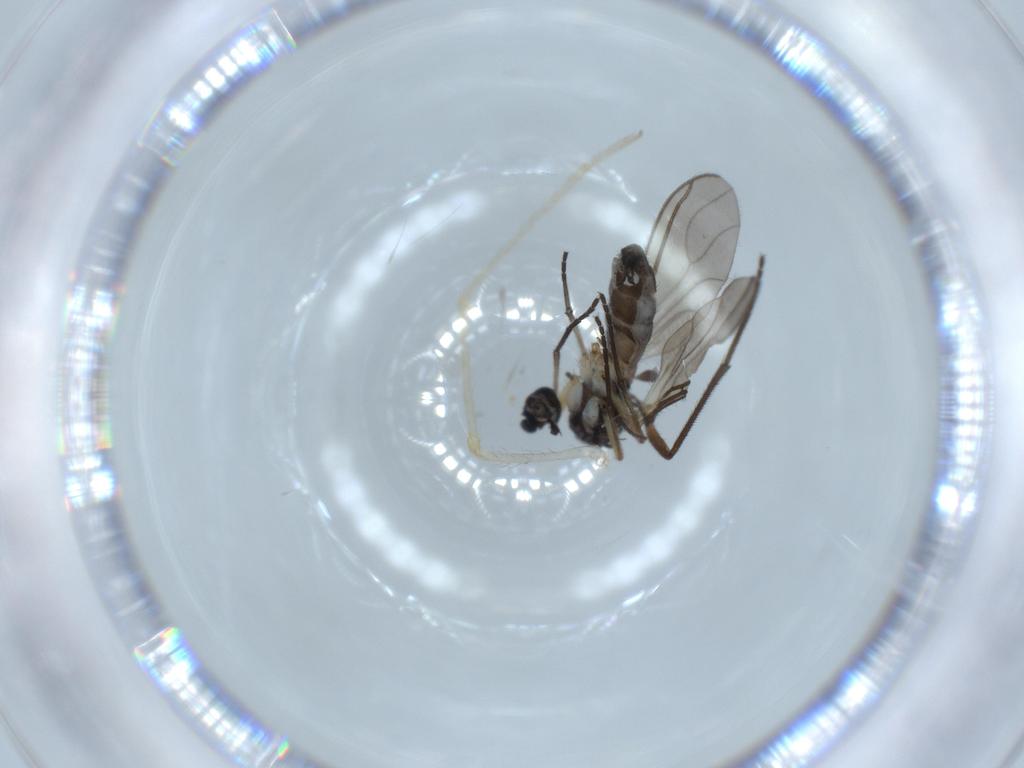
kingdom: Animalia
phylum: Arthropoda
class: Insecta
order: Diptera
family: Sciaridae
